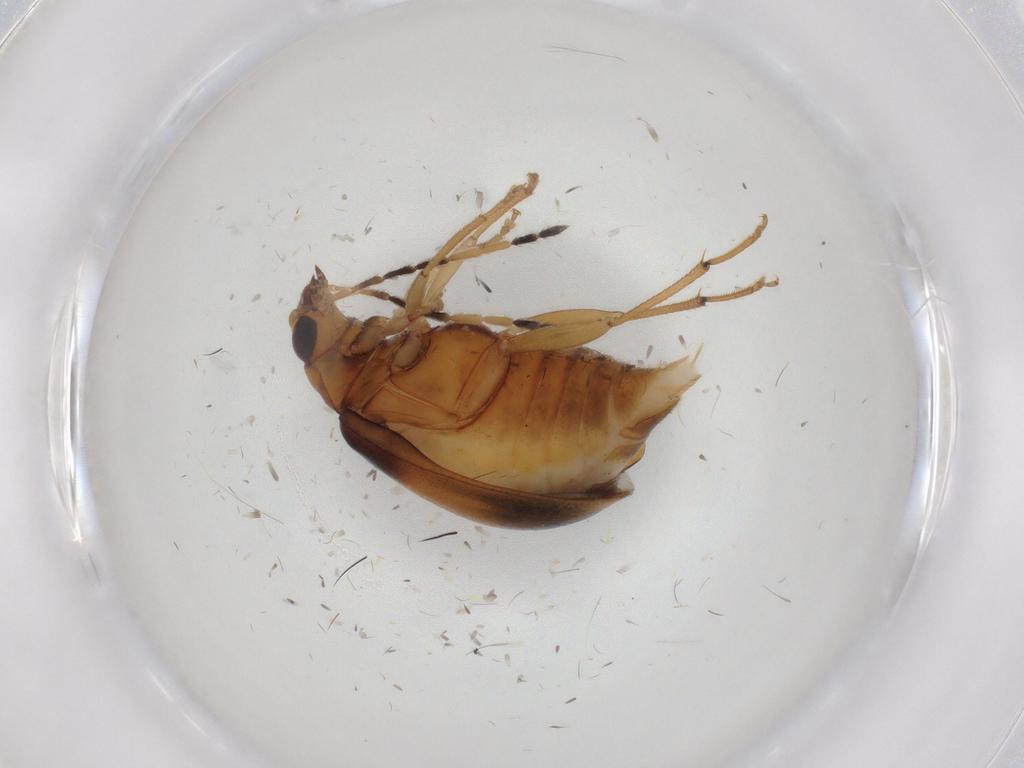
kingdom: Animalia
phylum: Arthropoda
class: Insecta
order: Coleoptera
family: Chrysomelidae
